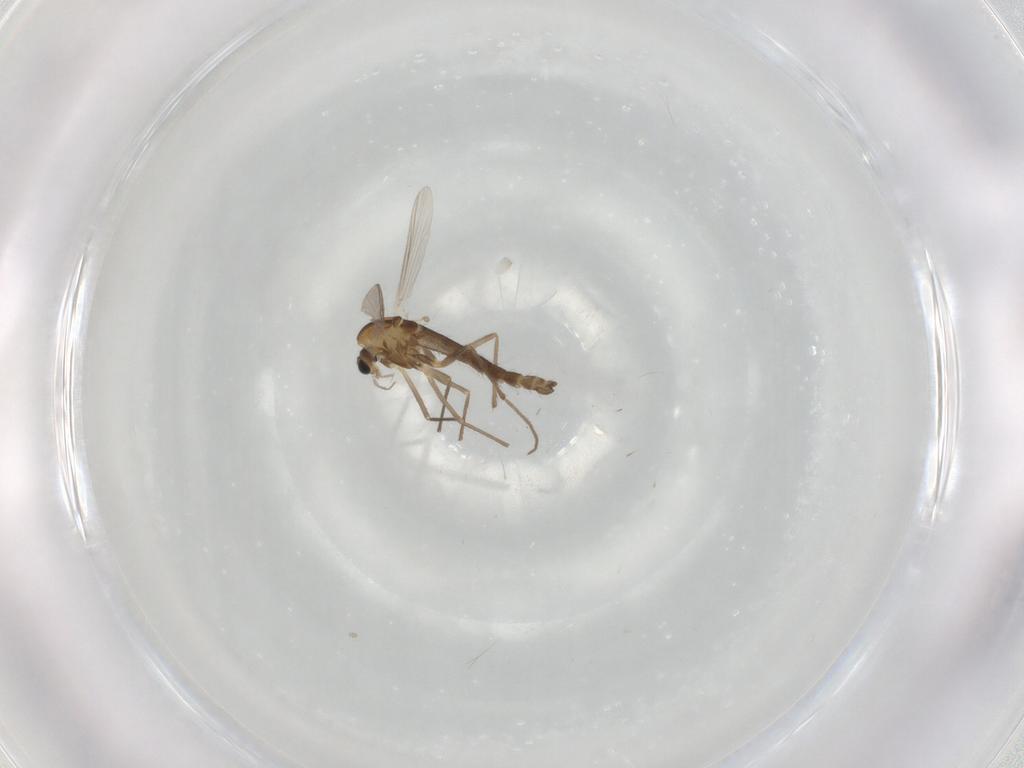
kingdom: Animalia
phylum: Arthropoda
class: Insecta
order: Diptera
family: Chironomidae
